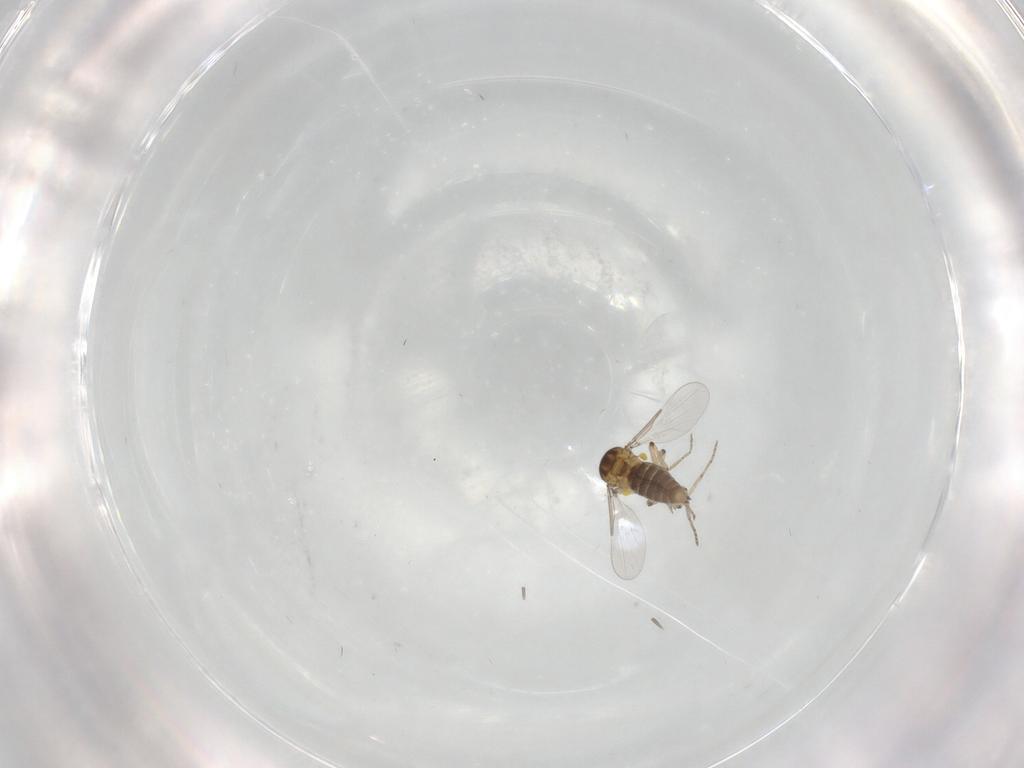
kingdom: Animalia
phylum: Arthropoda
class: Insecta
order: Diptera
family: Ceratopogonidae
